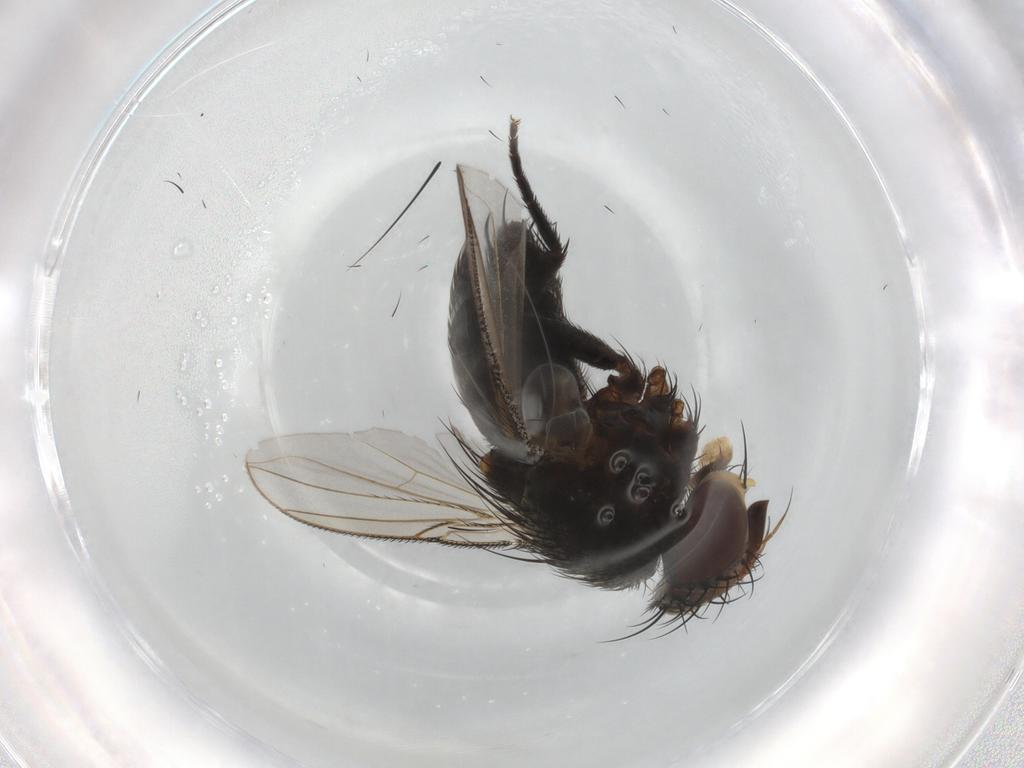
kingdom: Animalia
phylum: Arthropoda
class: Insecta
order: Diptera
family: Tachinidae
